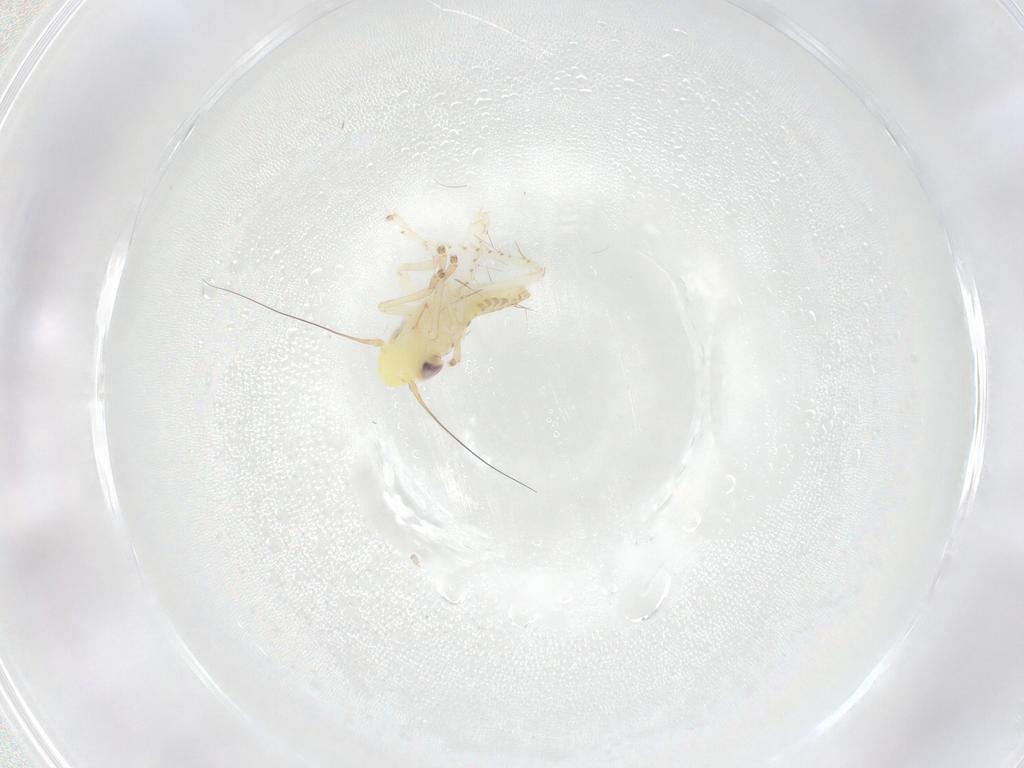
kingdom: Animalia
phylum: Arthropoda
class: Insecta
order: Hemiptera
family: Cicadellidae
